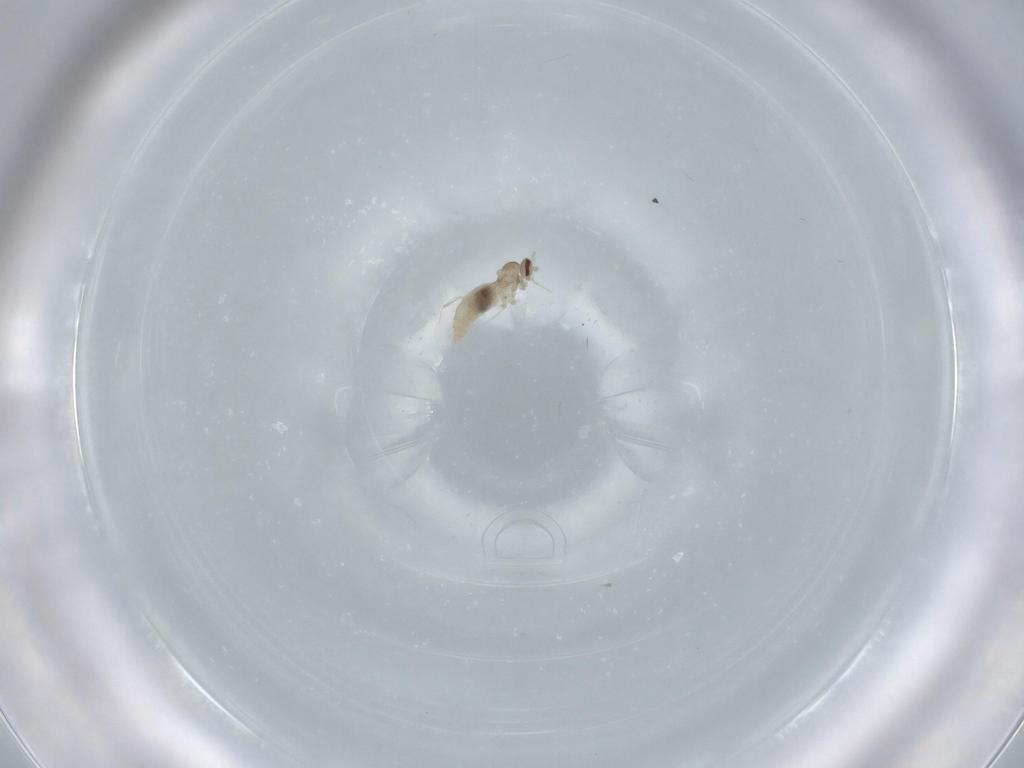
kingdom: Animalia
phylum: Arthropoda
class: Insecta
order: Diptera
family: Cecidomyiidae
